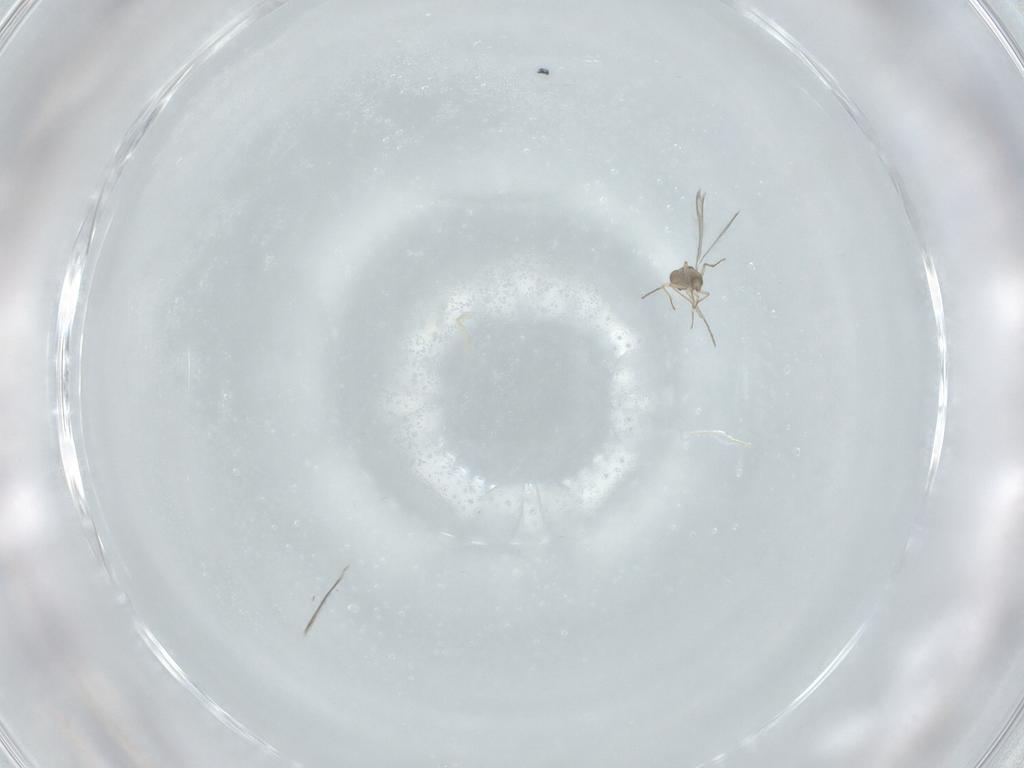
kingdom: Animalia
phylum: Arthropoda
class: Insecta
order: Hymenoptera
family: Mymaridae
